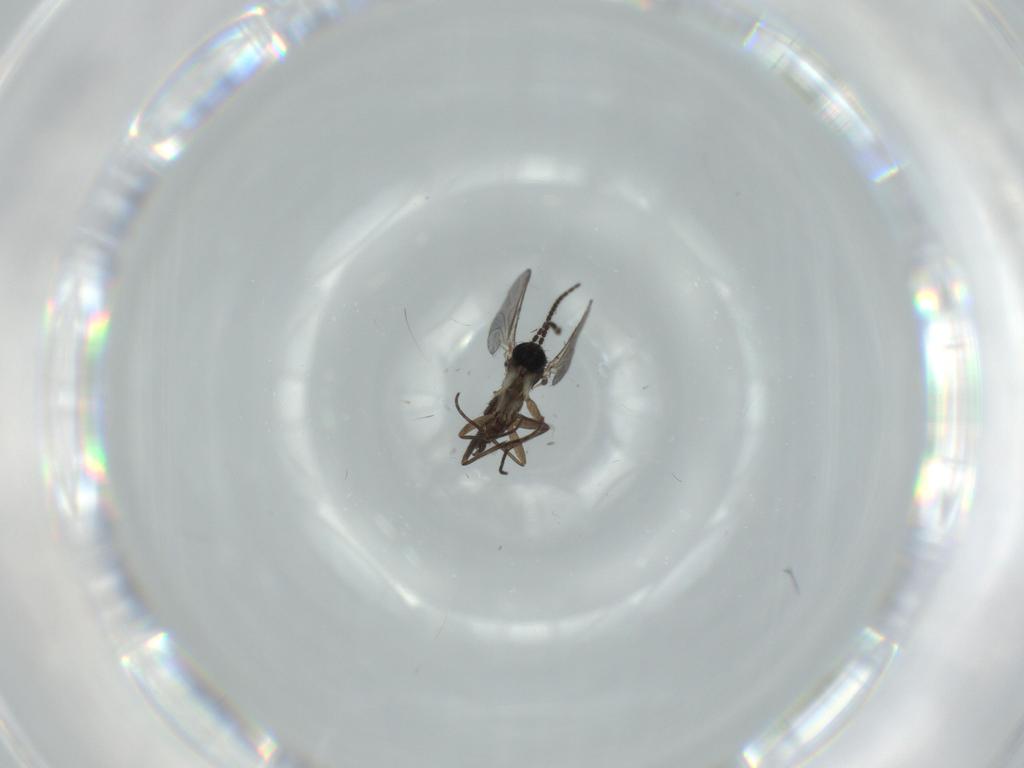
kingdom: Animalia
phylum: Arthropoda
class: Insecta
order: Diptera
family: Sciaridae
